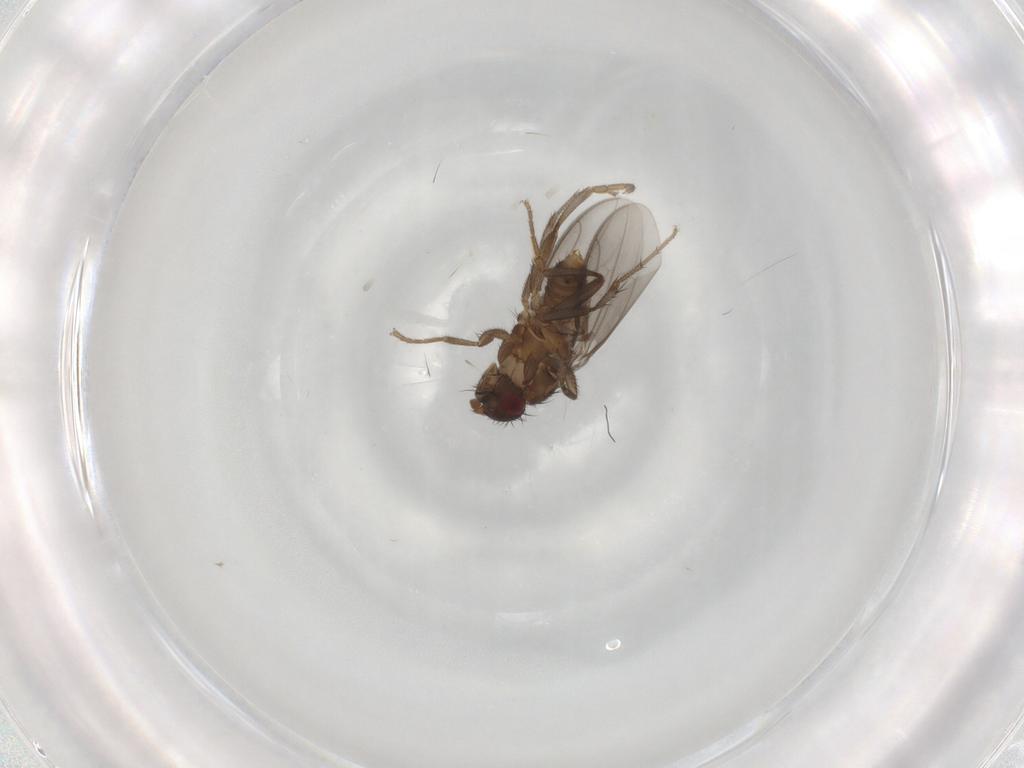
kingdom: Animalia
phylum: Arthropoda
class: Insecta
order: Diptera
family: Sphaeroceridae
